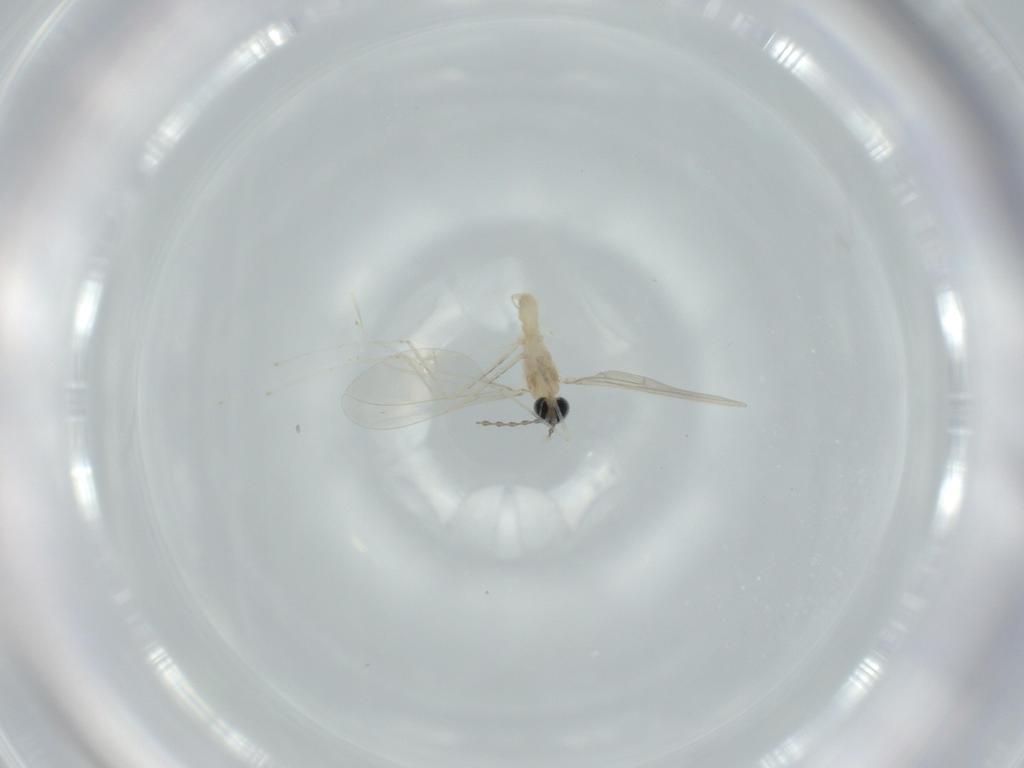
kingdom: Animalia
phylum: Arthropoda
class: Insecta
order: Diptera
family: Cecidomyiidae
